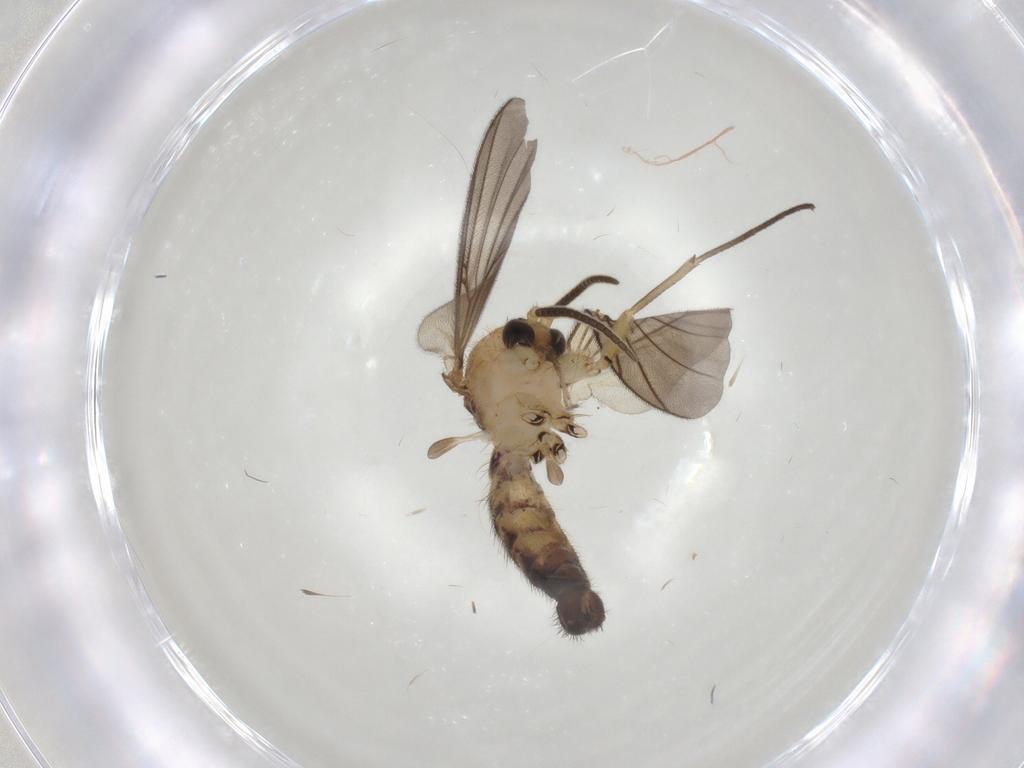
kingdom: Animalia
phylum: Arthropoda
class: Insecta
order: Diptera
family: Mycetophilidae
